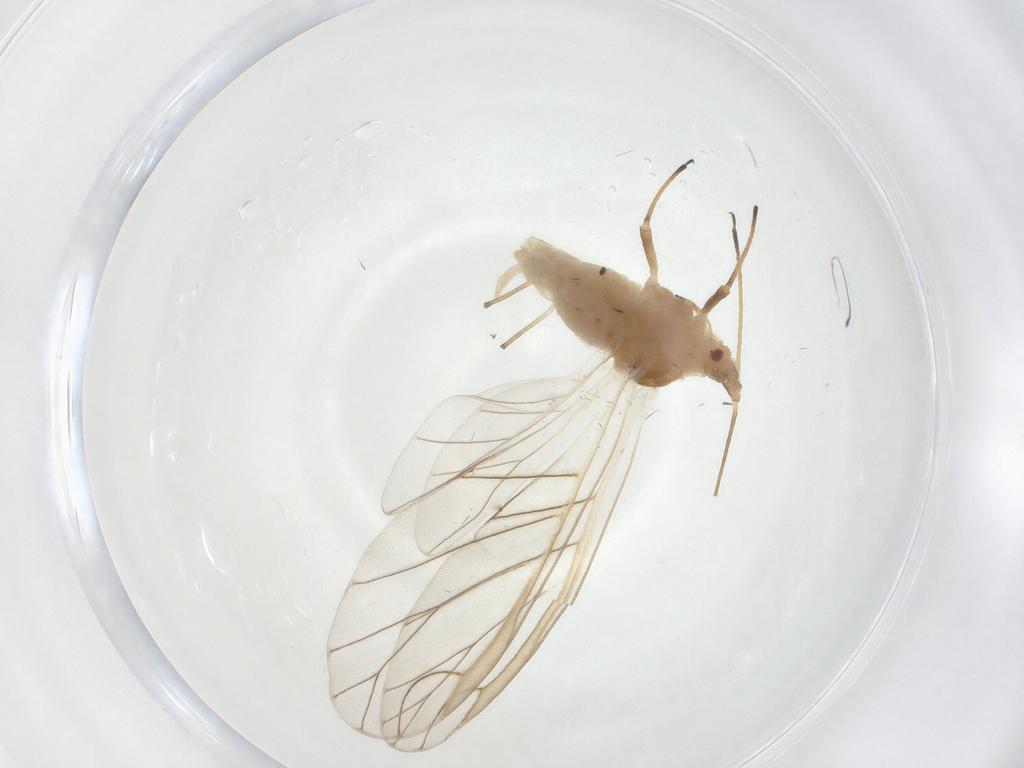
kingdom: Animalia
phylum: Arthropoda
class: Insecta
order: Hemiptera
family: Aphididae
